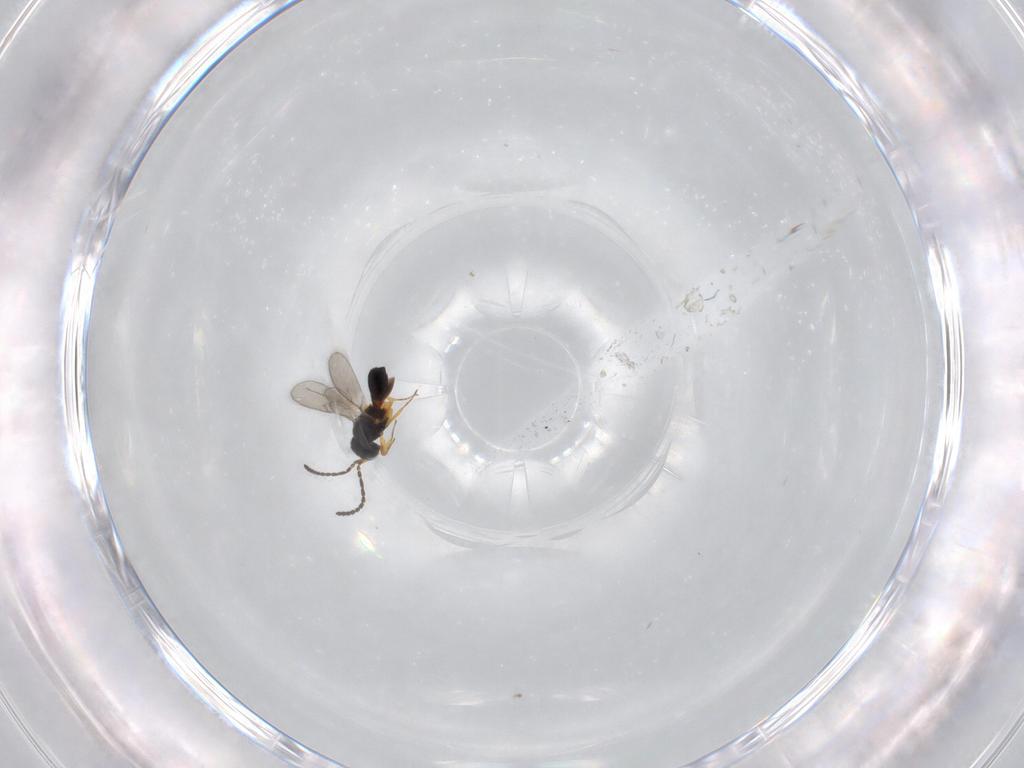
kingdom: Animalia
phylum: Arthropoda
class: Insecta
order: Hymenoptera
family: Scelionidae
